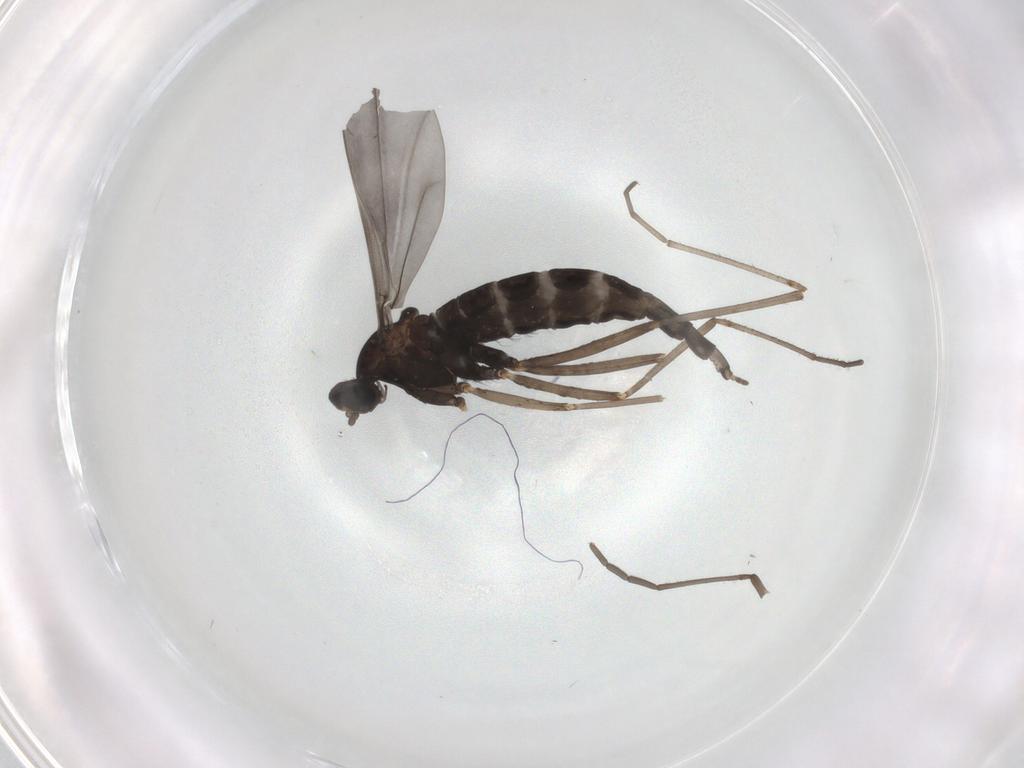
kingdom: Animalia
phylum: Arthropoda
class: Insecta
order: Diptera
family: Cecidomyiidae
